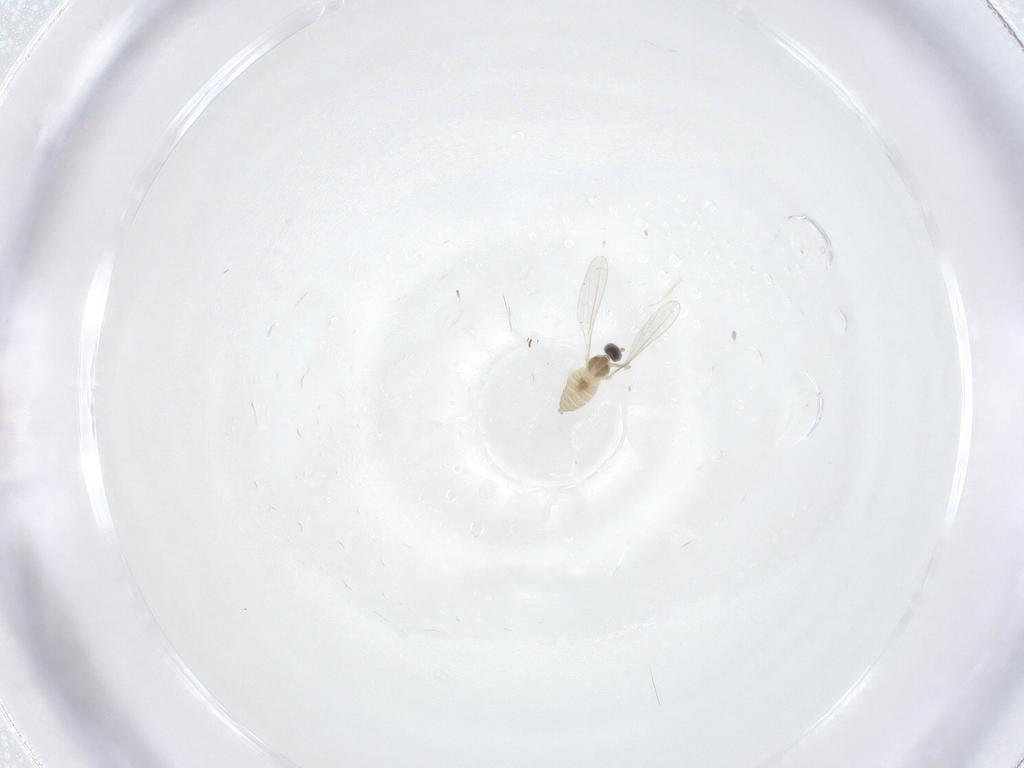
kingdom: Animalia
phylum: Arthropoda
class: Insecta
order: Diptera
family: Cecidomyiidae
